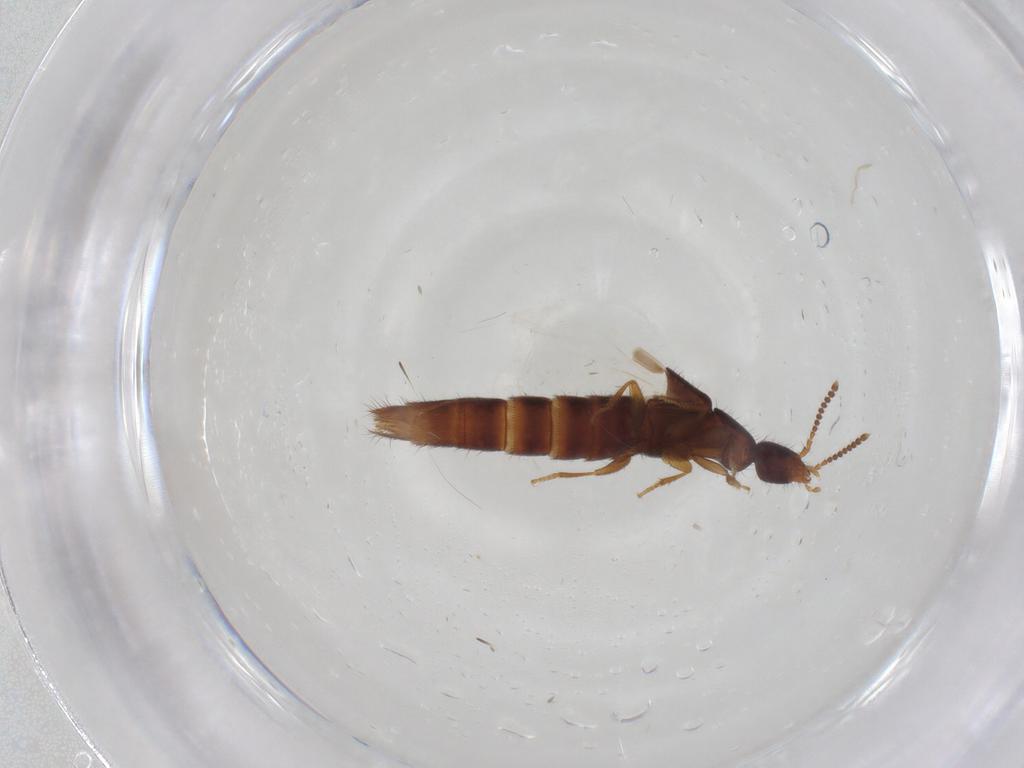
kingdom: Animalia
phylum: Arthropoda
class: Insecta
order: Coleoptera
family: Staphylinidae
